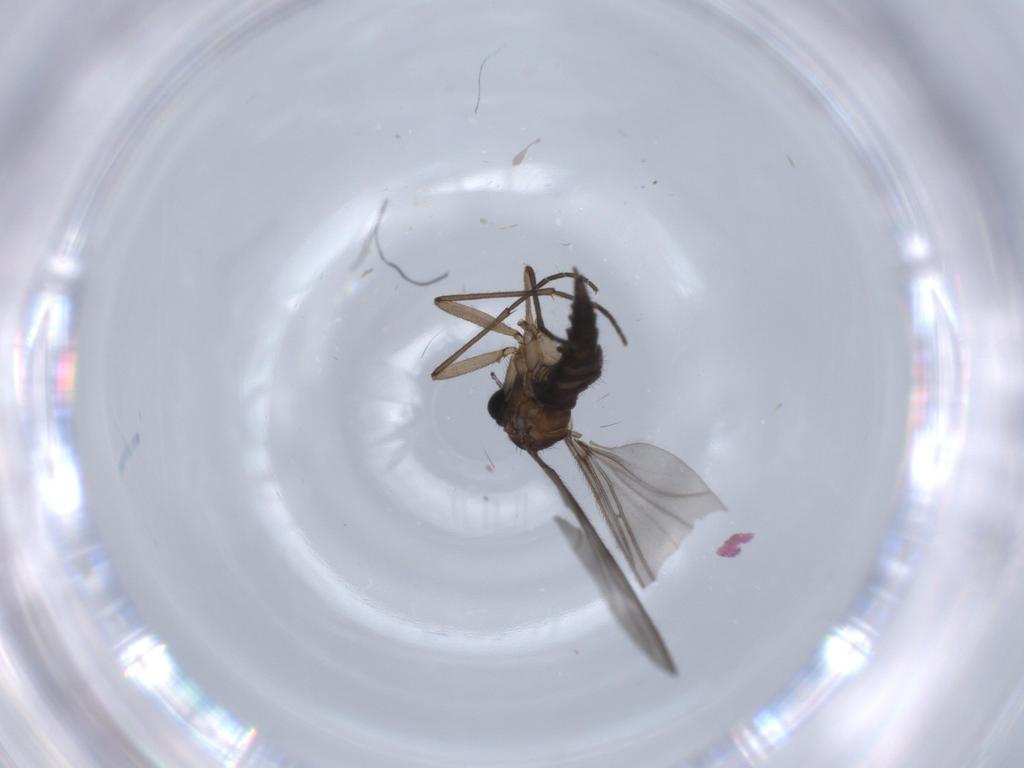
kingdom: Animalia
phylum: Arthropoda
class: Insecta
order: Diptera
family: Sciaridae
